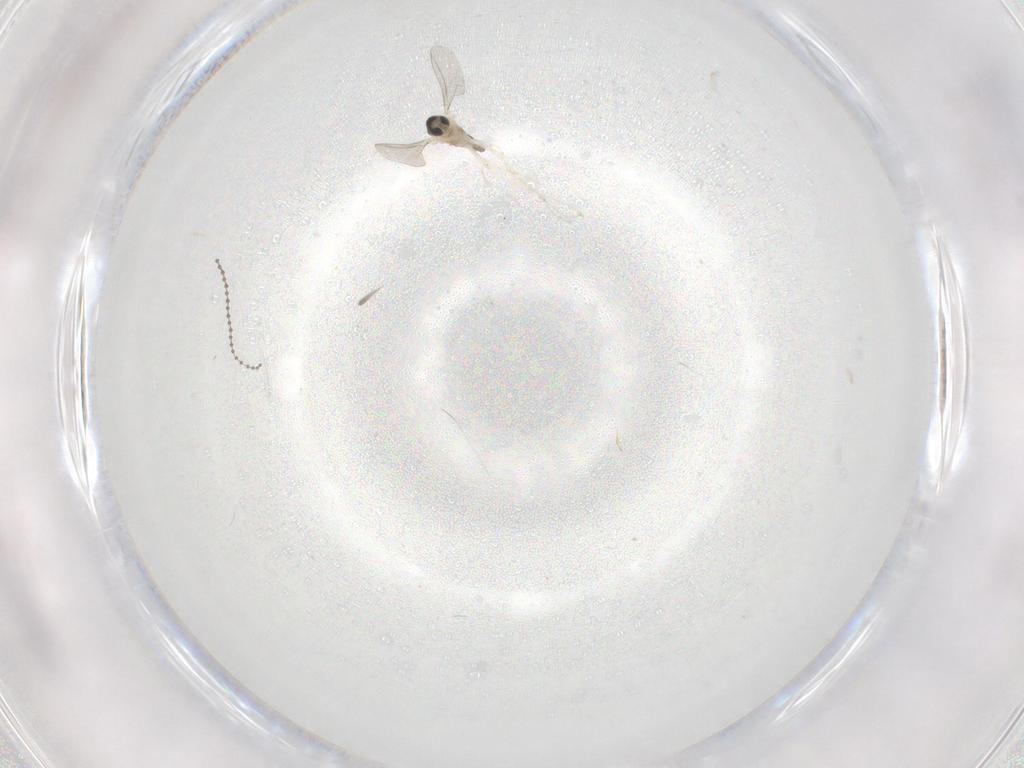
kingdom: Animalia
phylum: Arthropoda
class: Insecta
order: Diptera
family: Cecidomyiidae
